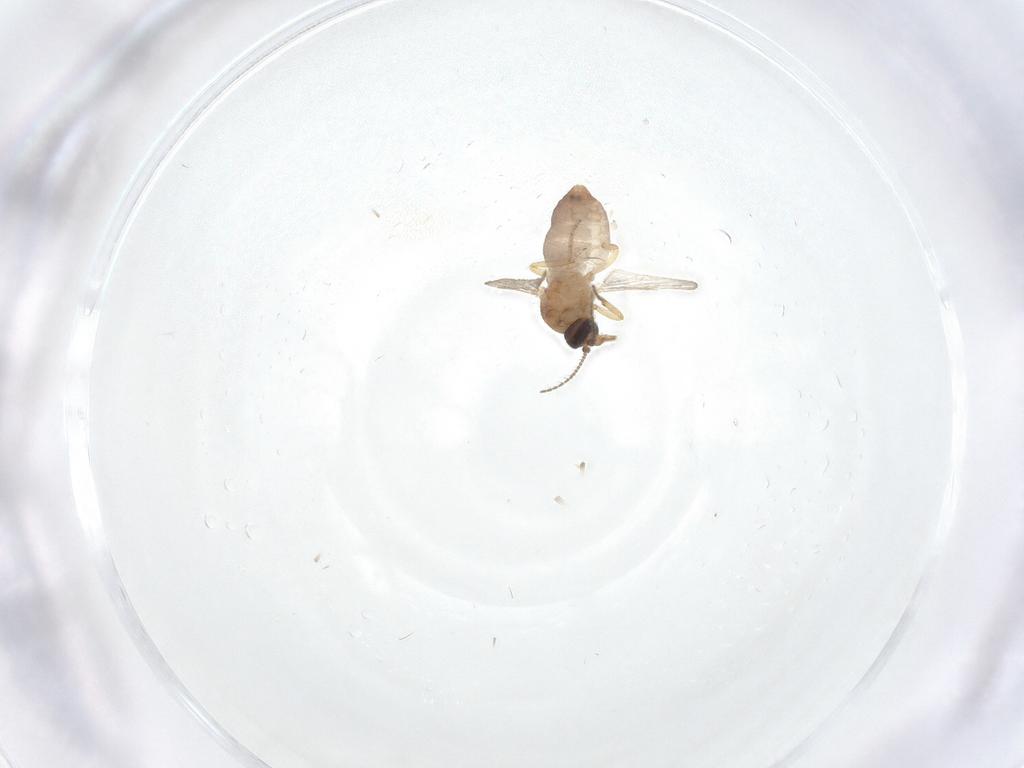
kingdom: Animalia
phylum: Arthropoda
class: Insecta
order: Diptera
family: Ceratopogonidae
